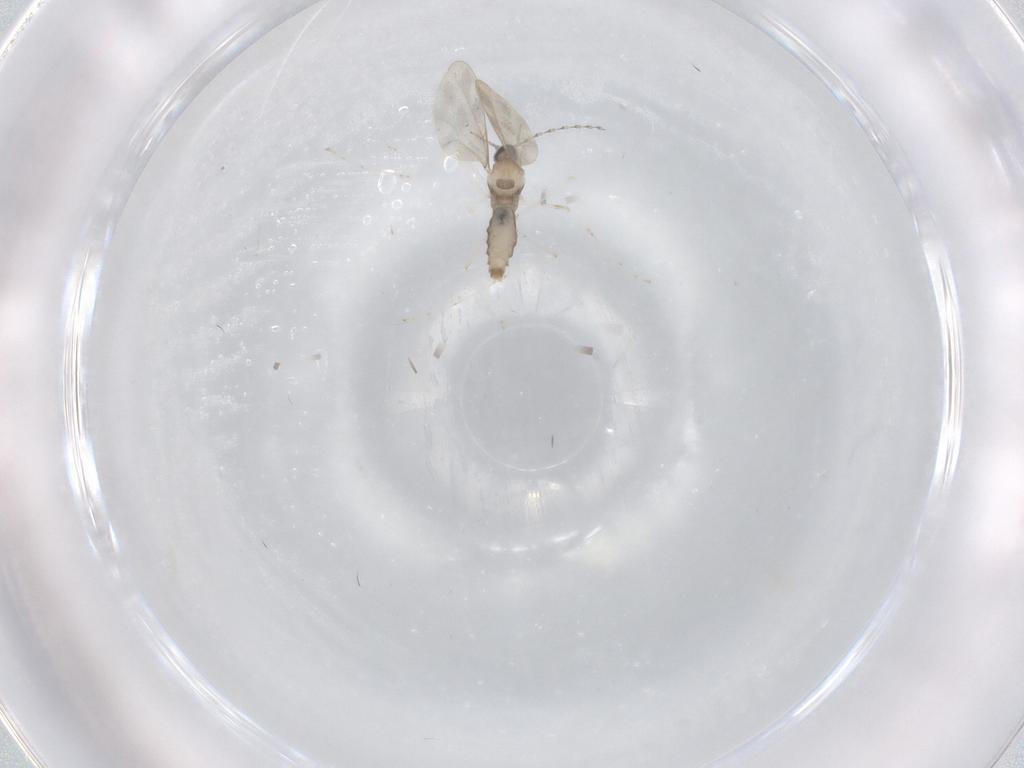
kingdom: Animalia
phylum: Arthropoda
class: Insecta
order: Diptera
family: Cecidomyiidae
